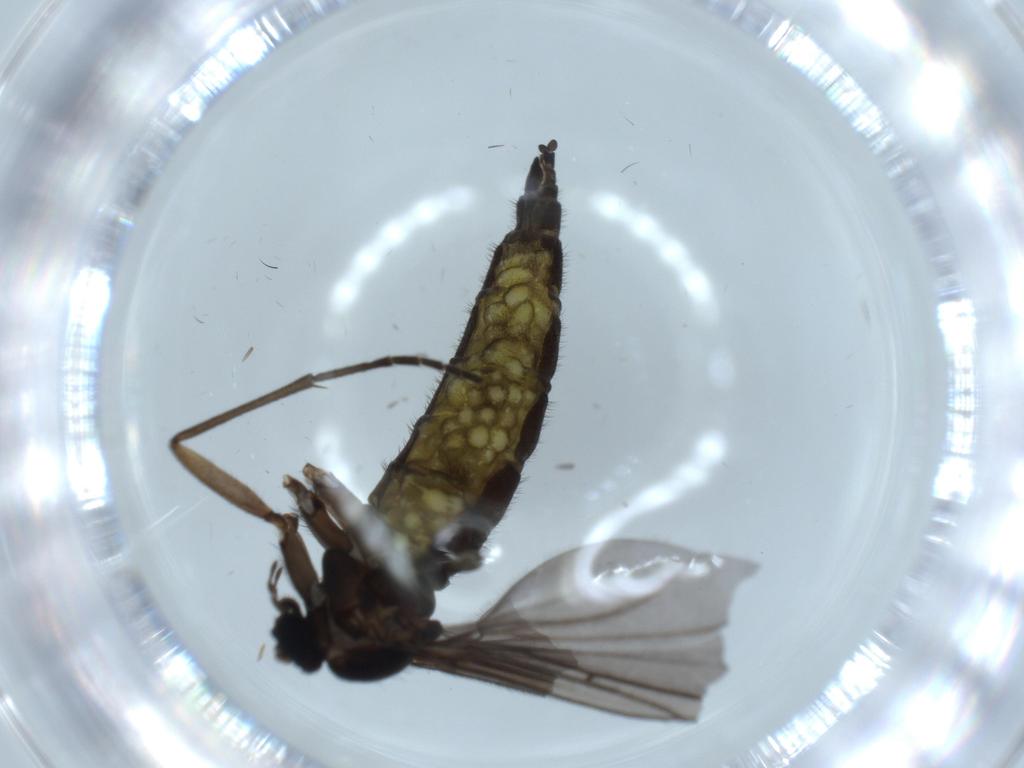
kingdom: Animalia
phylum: Arthropoda
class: Insecta
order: Diptera
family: Sciaridae
